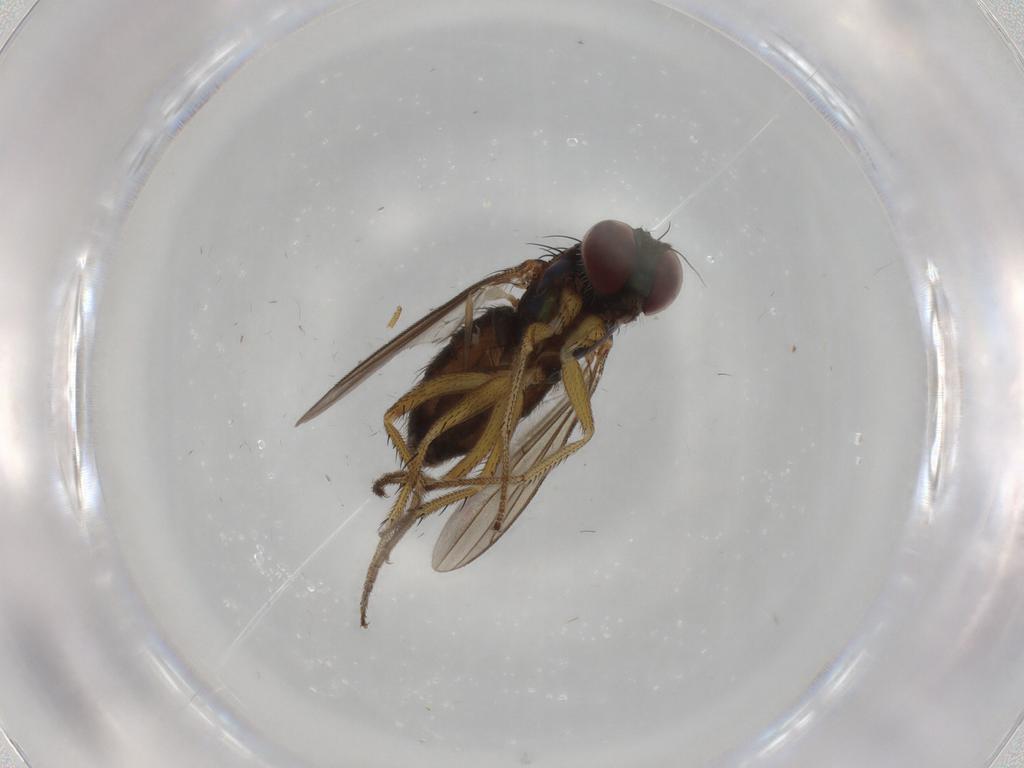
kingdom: Animalia
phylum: Arthropoda
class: Insecta
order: Diptera
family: Dolichopodidae
